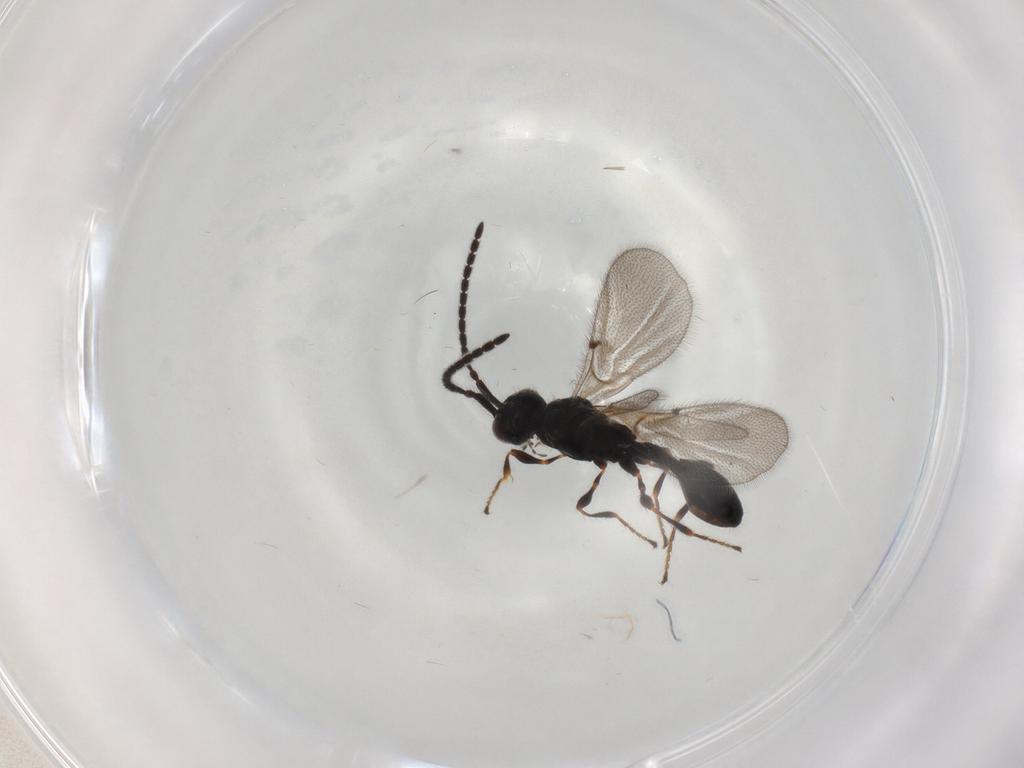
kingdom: Animalia
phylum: Arthropoda
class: Insecta
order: Hymenoptera
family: Diapriidae
